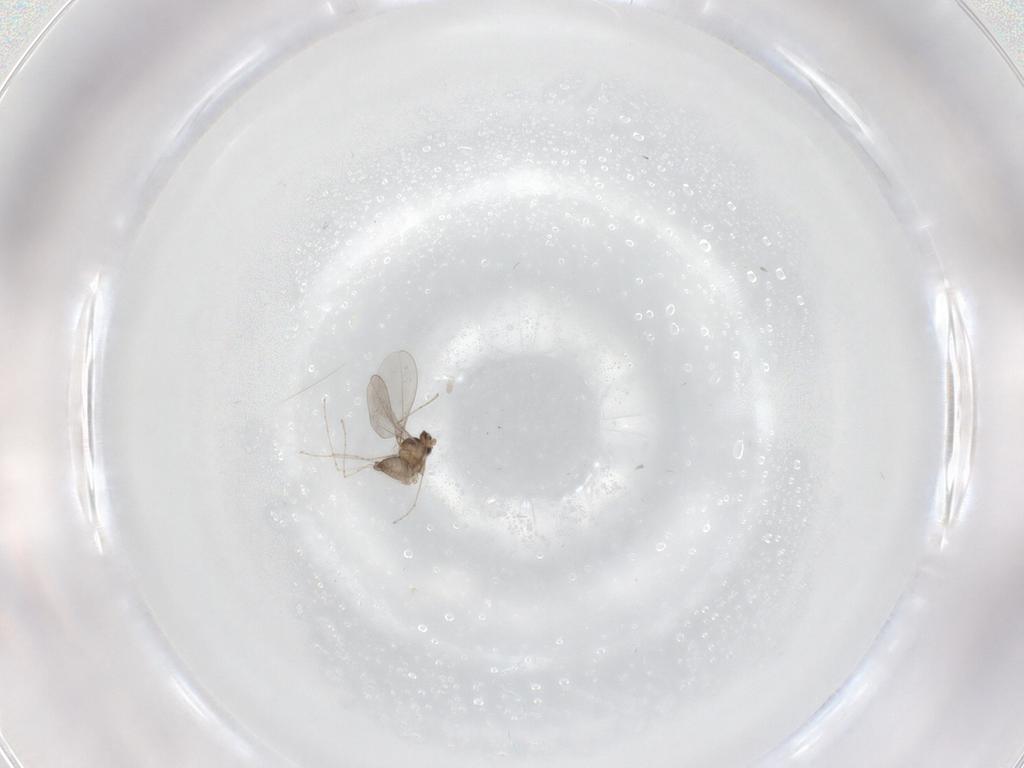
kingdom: Animalia
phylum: Arthropoda
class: Insecta
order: Diptera
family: Cecidomyiidae
